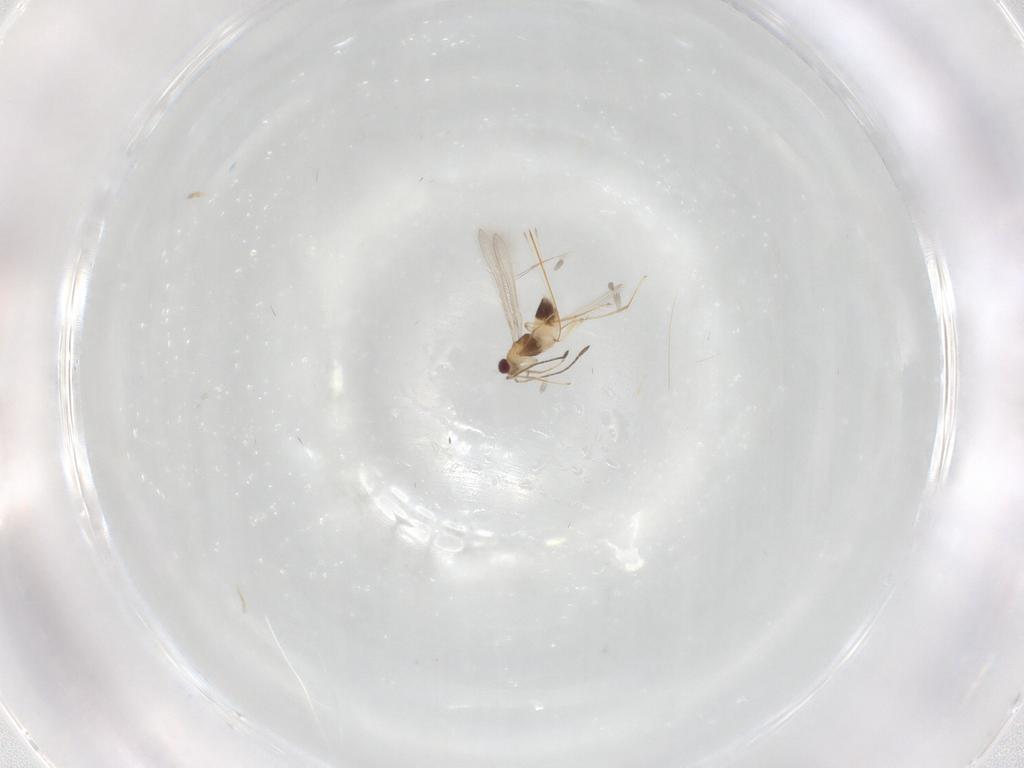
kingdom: Animalia
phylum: Arthropoda
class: Insecta
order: Hymenoptera
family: Mymaridae
